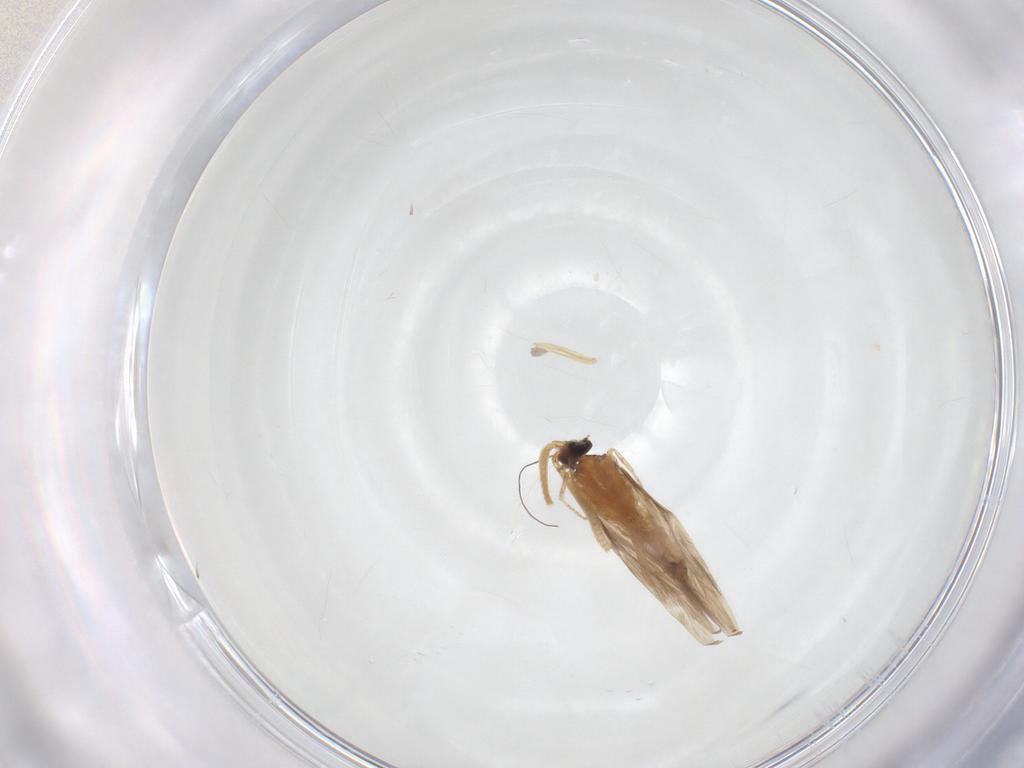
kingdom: Animalia
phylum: Arthropoda
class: Insecta
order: Trichoptera
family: Hydroptilidae
